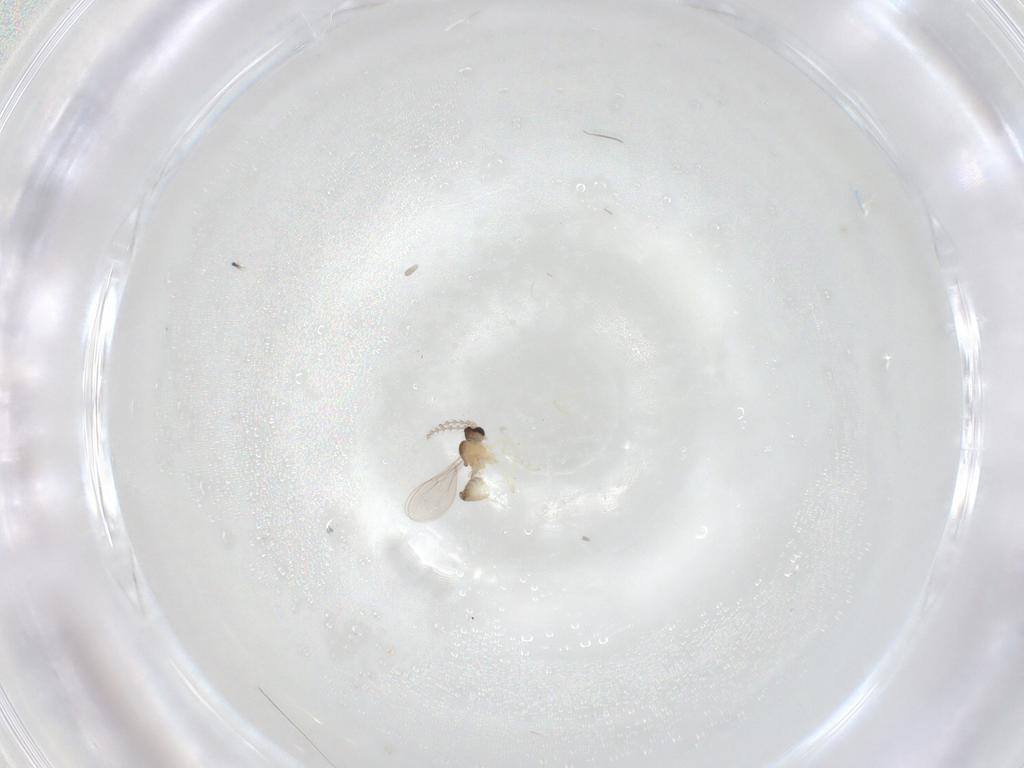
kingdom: Animalia
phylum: Arthropoda
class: Insecta
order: Diptera
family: Cecidomyiidae
